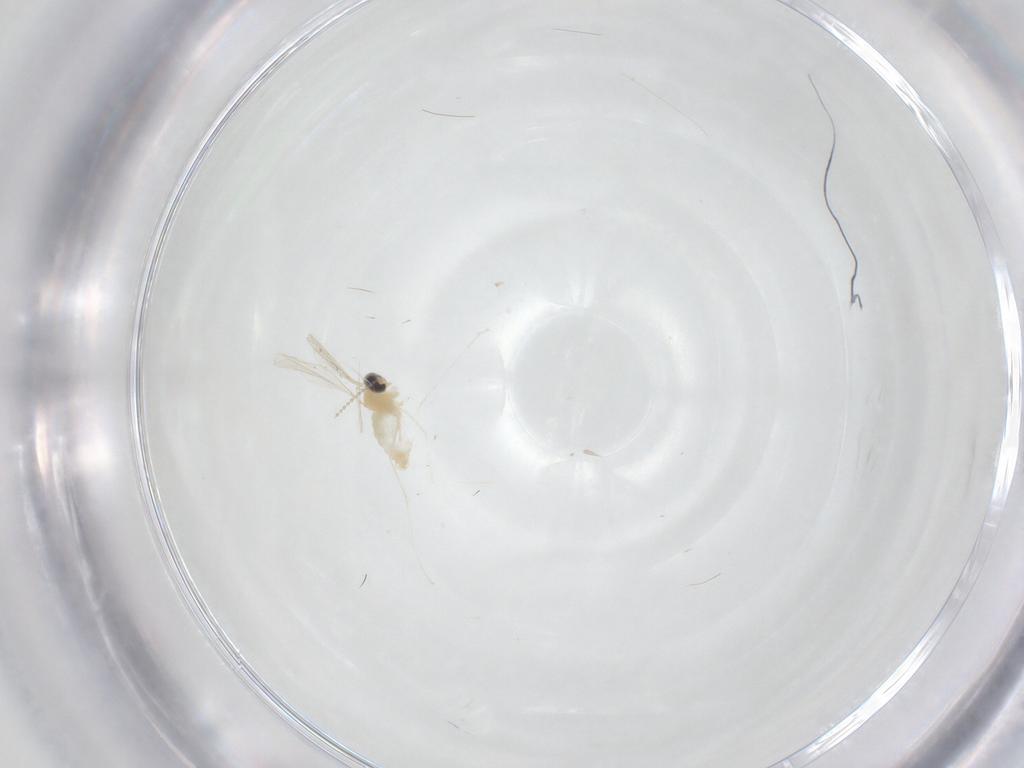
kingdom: Animalia
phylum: Arthropoda
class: Insecta
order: Diptera
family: Cecidomyiidae
